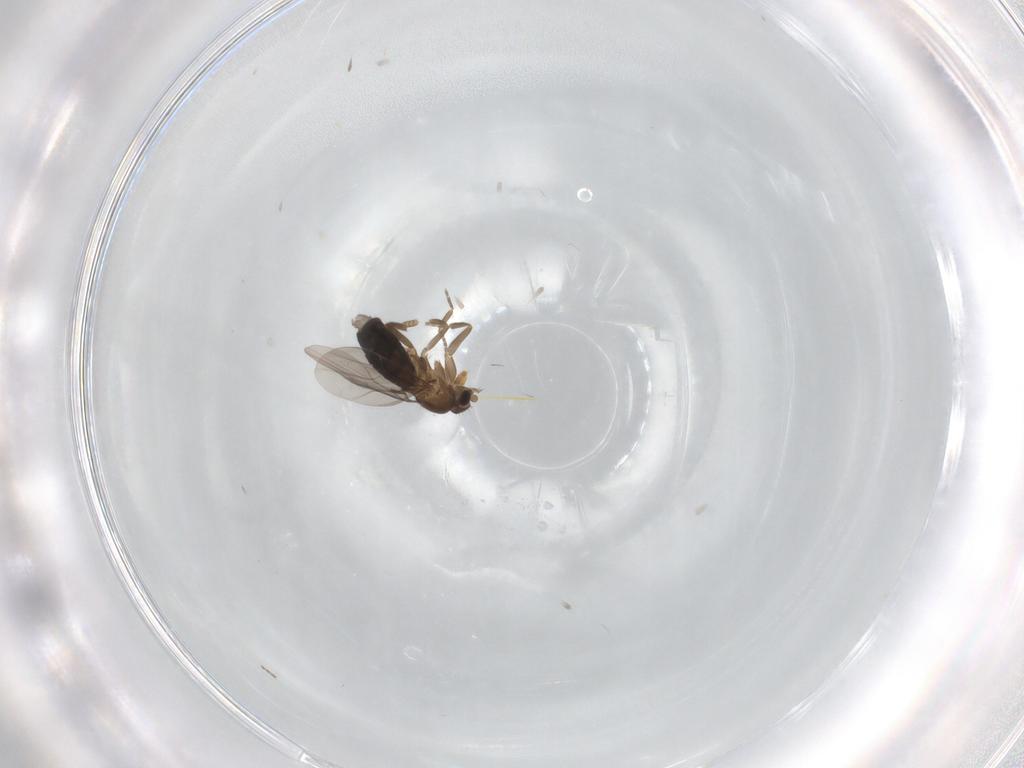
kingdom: Animalia
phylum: Arthropoda
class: Insecta
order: Diptera
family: Phoridae
